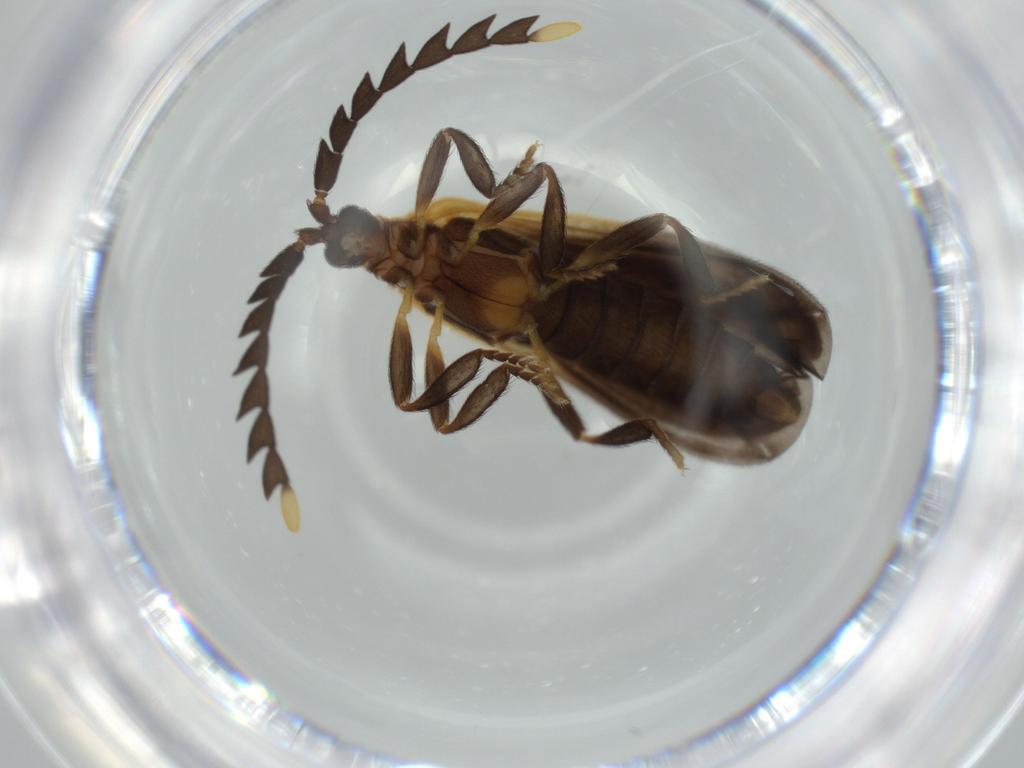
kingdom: Animalia
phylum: Arthropoda
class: Insecta
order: Coleoptera
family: Lycidae
